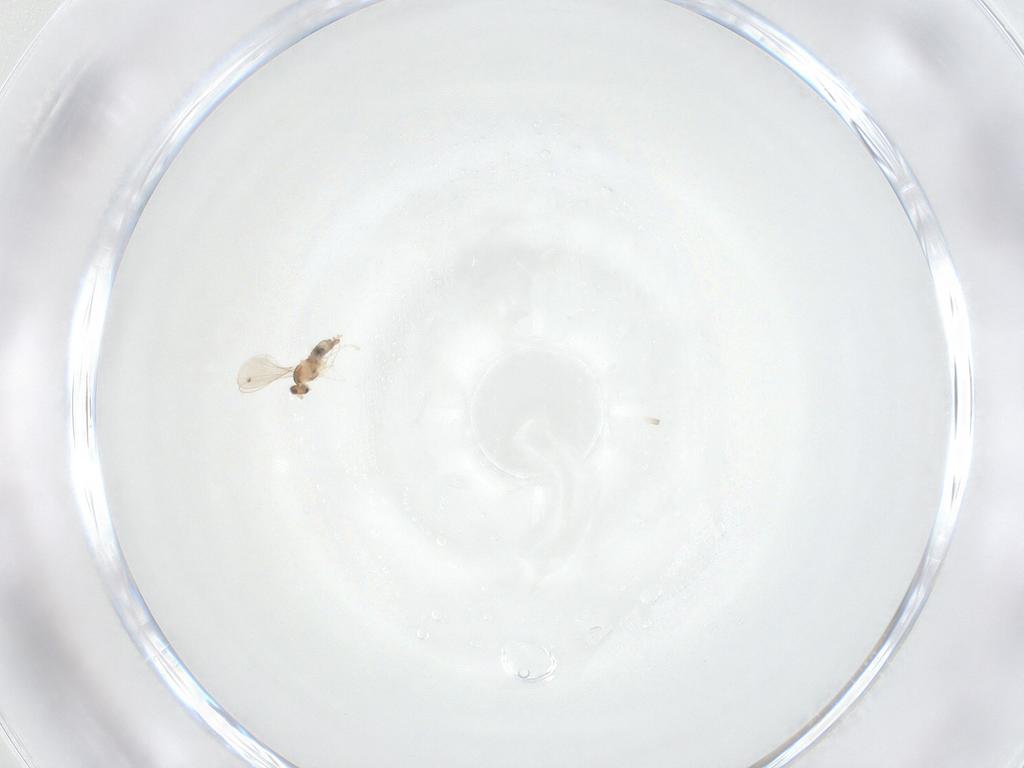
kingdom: Animalia
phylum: Arthropoda
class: Insecta
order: Diptera
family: Cecidomyiidae
